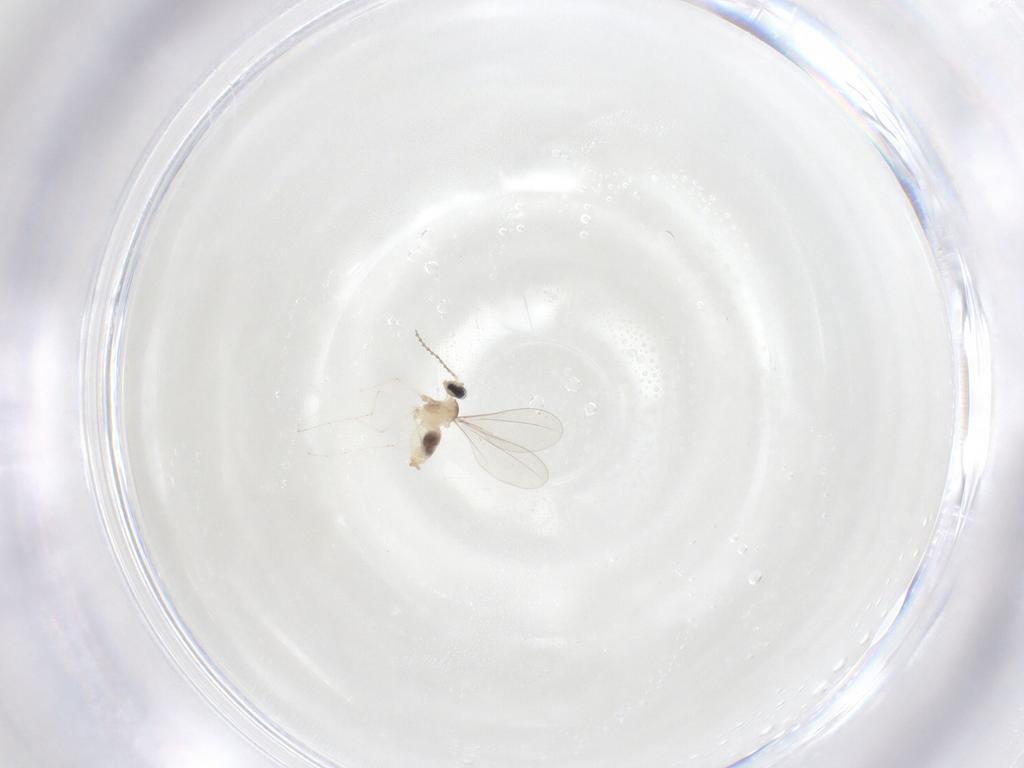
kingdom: Animalia
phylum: Arthropoda
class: Insecta
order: Diptera
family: Cecidomyiidae
